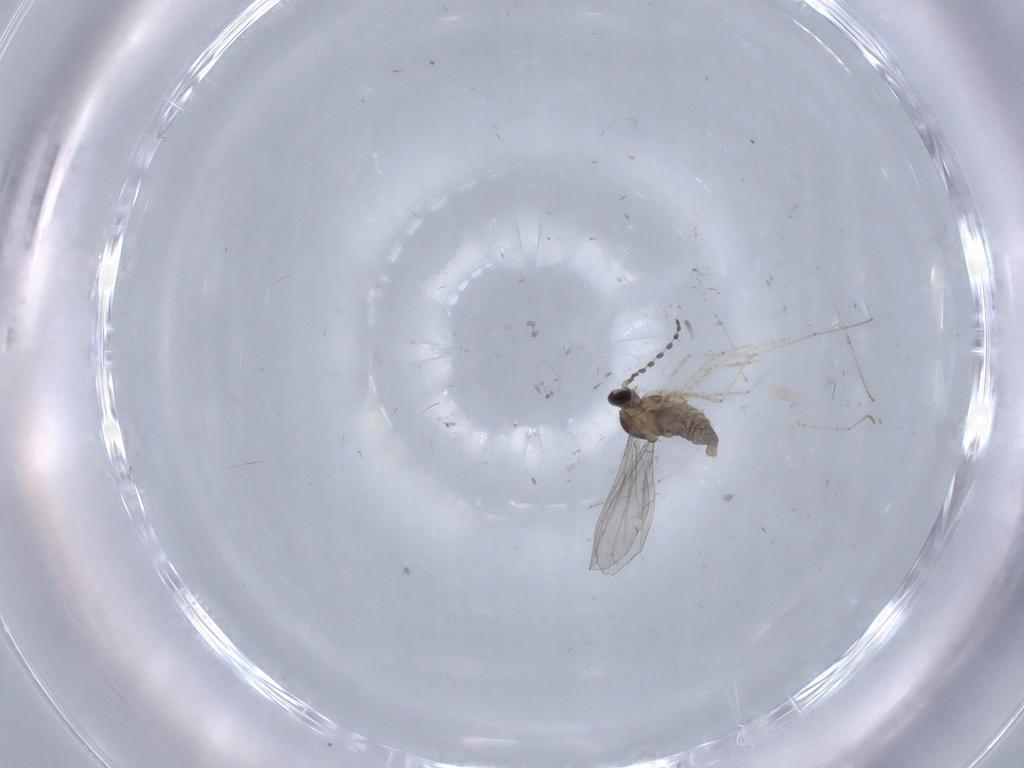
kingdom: Animalia
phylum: Arthropoda
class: Insecta
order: Diptera
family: Cecidomyiidae
